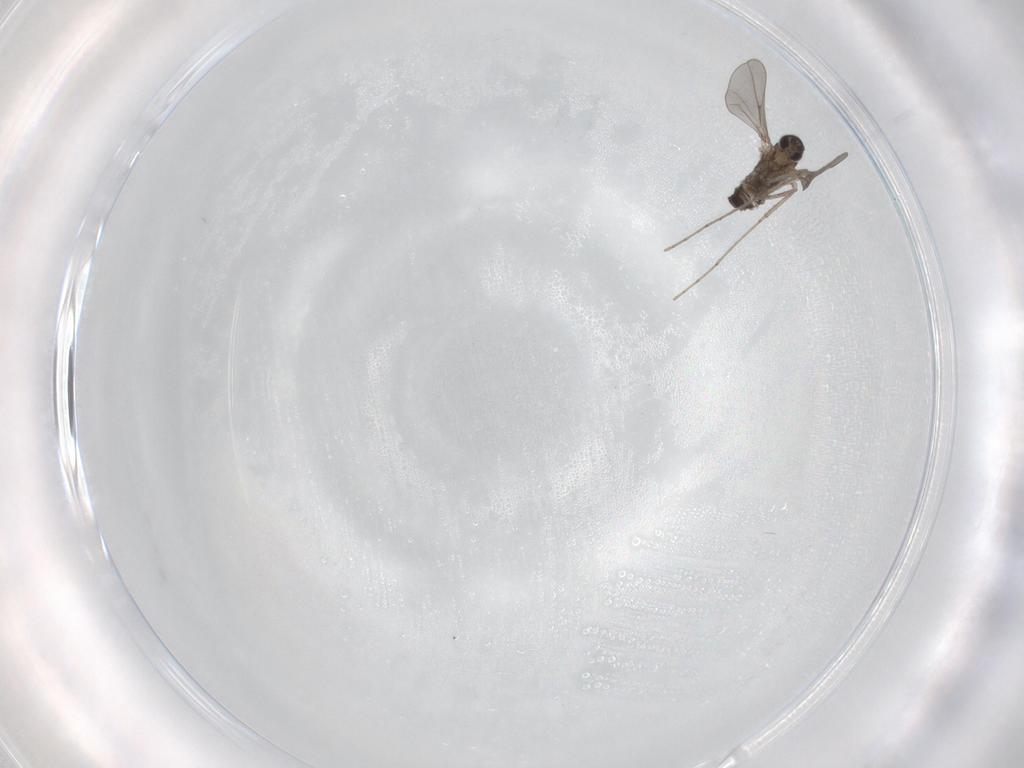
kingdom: Animalia
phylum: Arthropoda
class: Insecta
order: Diptera
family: Cecidomyiidae
